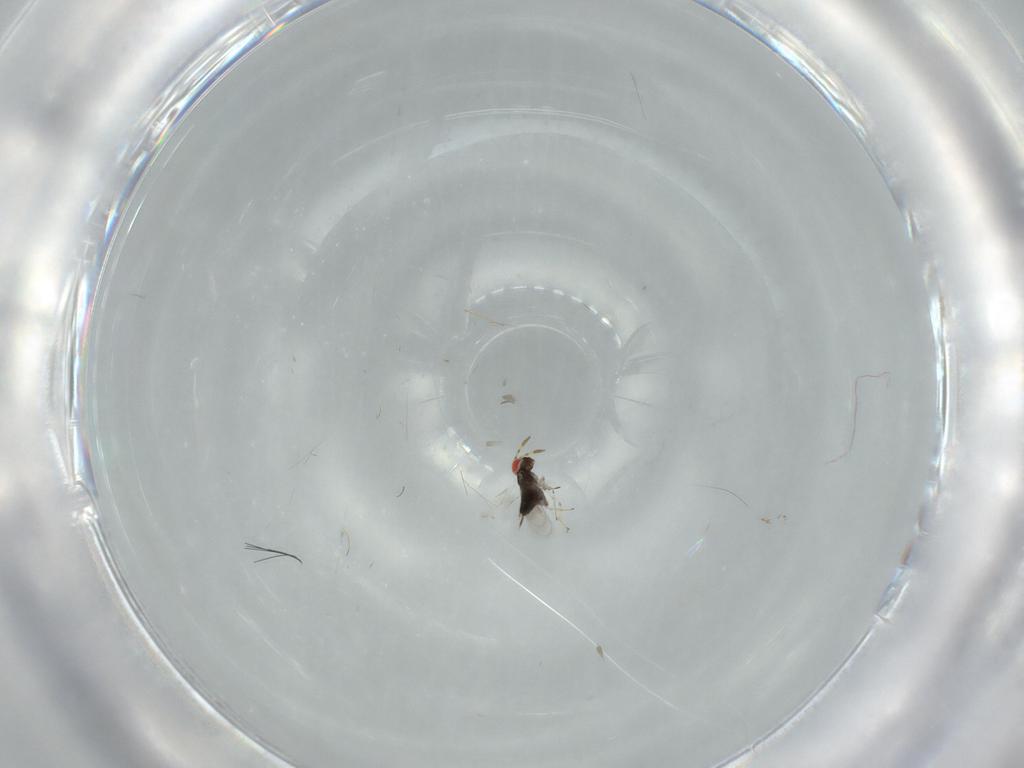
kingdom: Animalia
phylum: Arthropoda
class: Insecta
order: Hymenoptera
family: Azotidae
